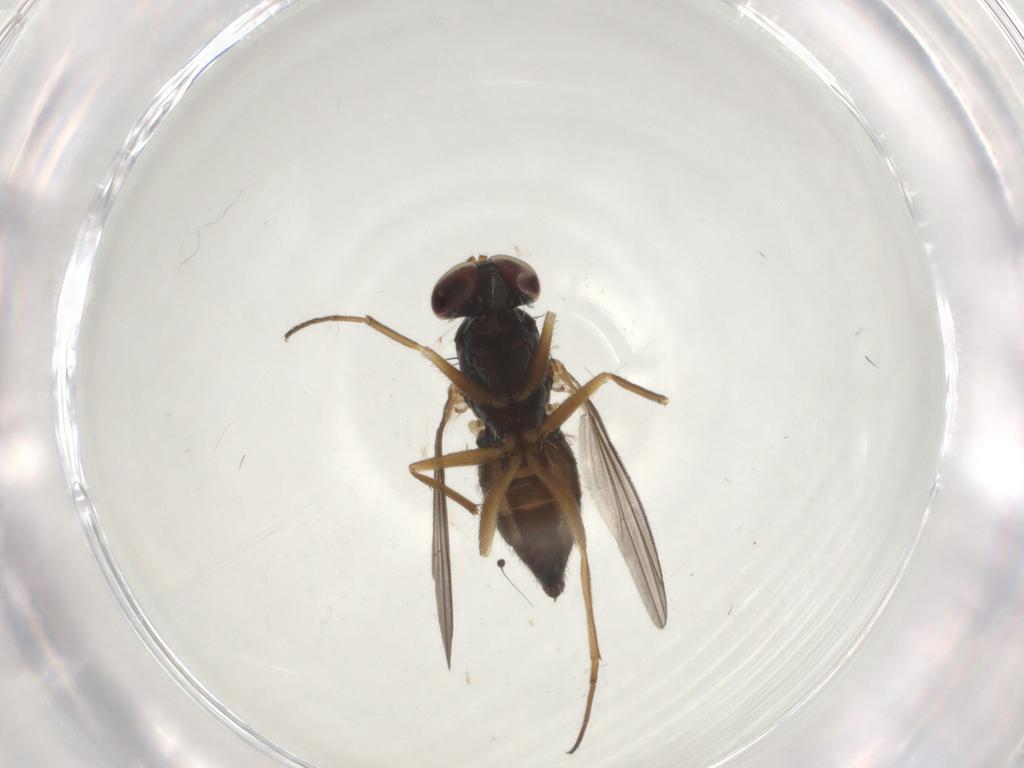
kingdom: Animalia
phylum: Arthropoda
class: Insecta
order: Diptera
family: Dolichopodidae
